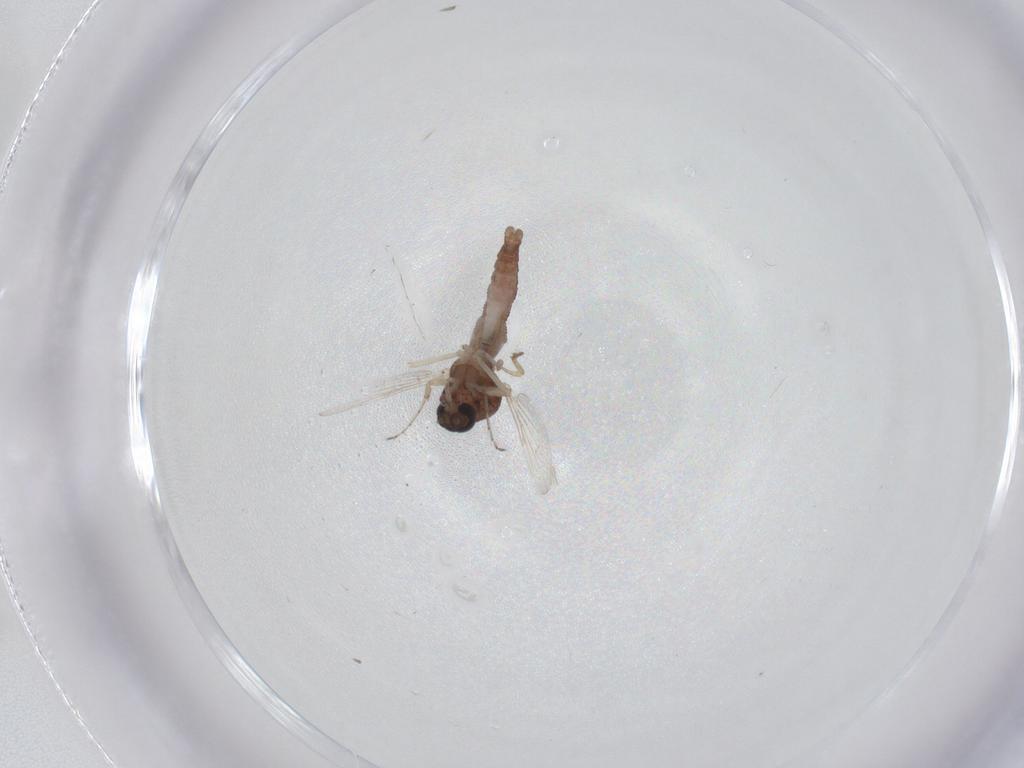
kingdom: Animalia
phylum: Arthropoda
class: Insecta
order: Diptera
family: Ceratopogonidae
